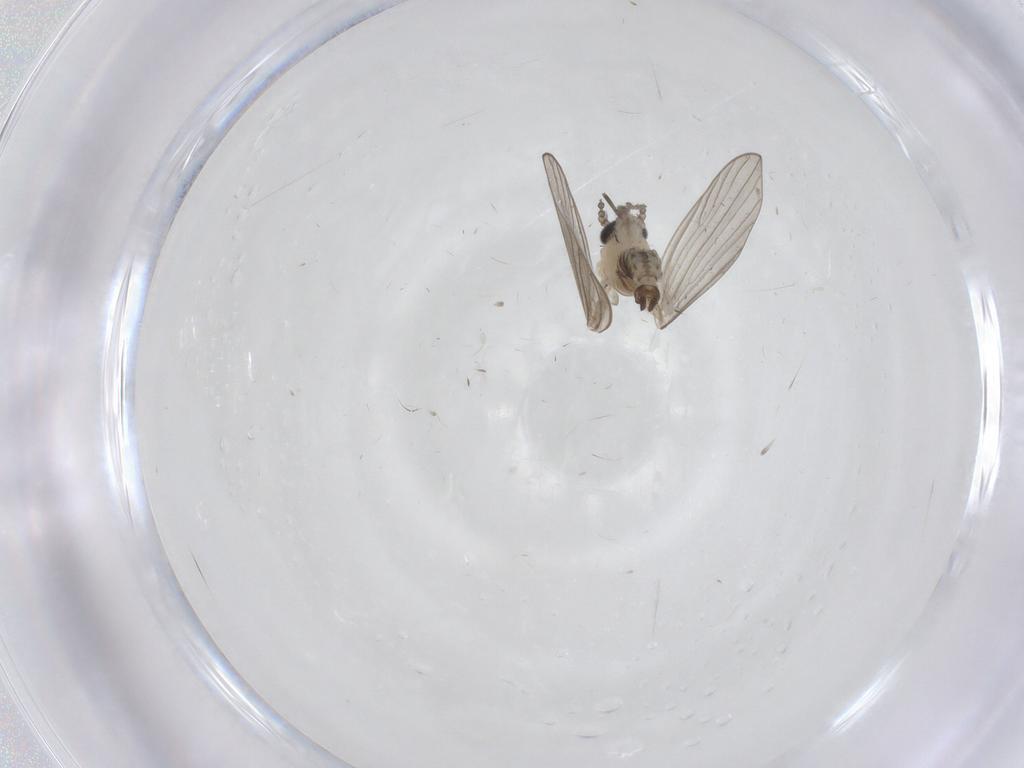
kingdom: Animalia
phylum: Arthropoda
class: Insecta
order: Diptera
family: Psychodidae
